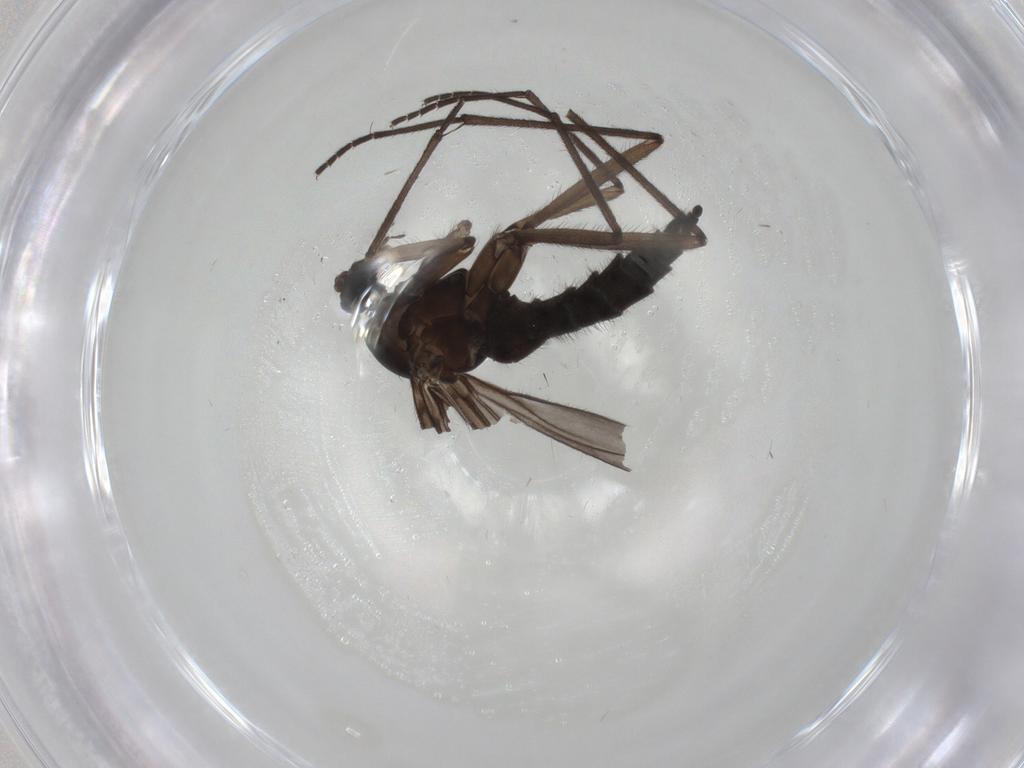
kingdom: Animalia
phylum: Arthropoda
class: Insecta
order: Diptera
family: Sciaridae
